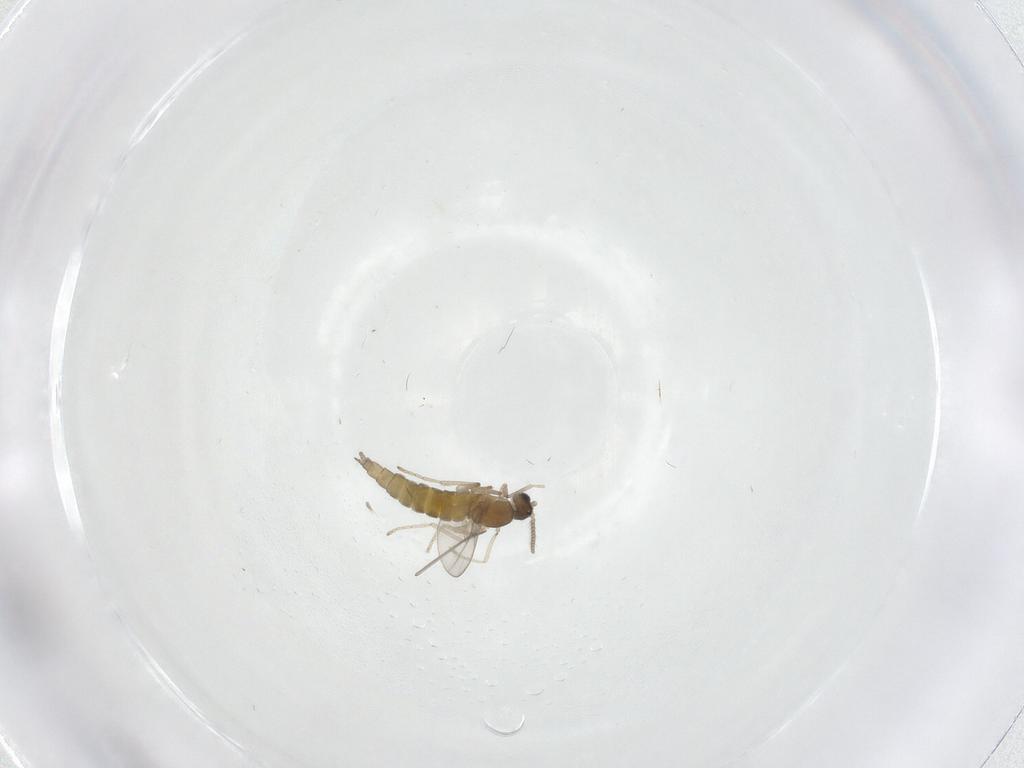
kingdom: Animalia
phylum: Arthropoda
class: Insecta
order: Diptera
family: Cecidomyiidae
